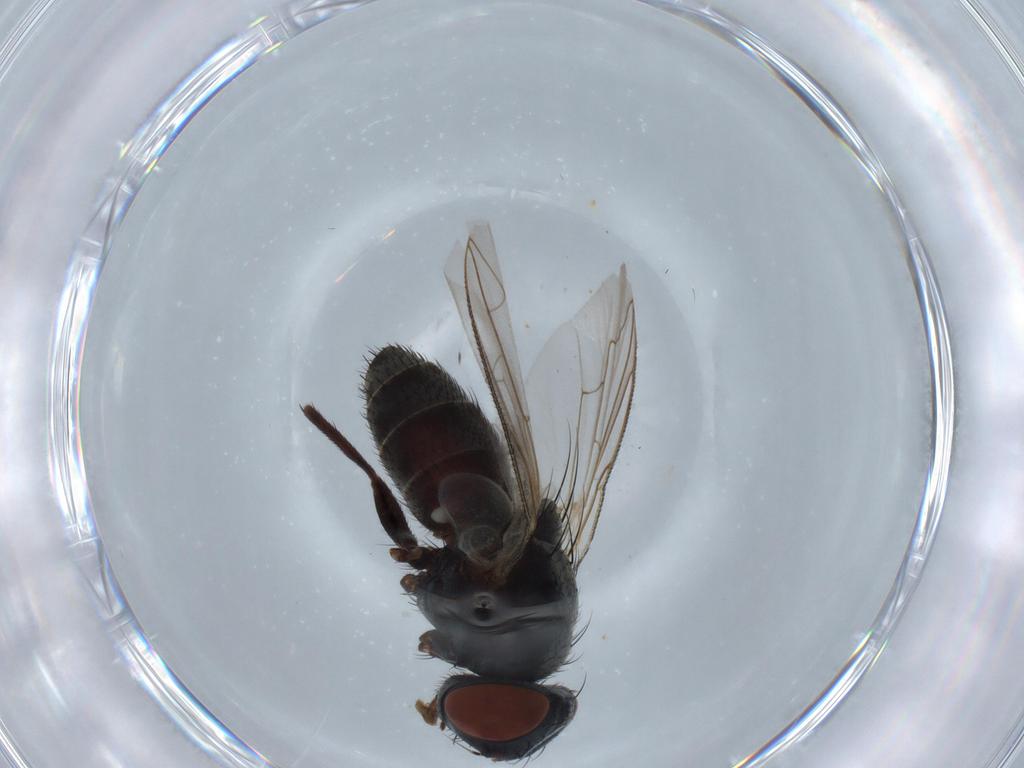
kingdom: Animalia
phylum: Arthropoda
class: Insecta
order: Diptera
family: Sarcophagidae
